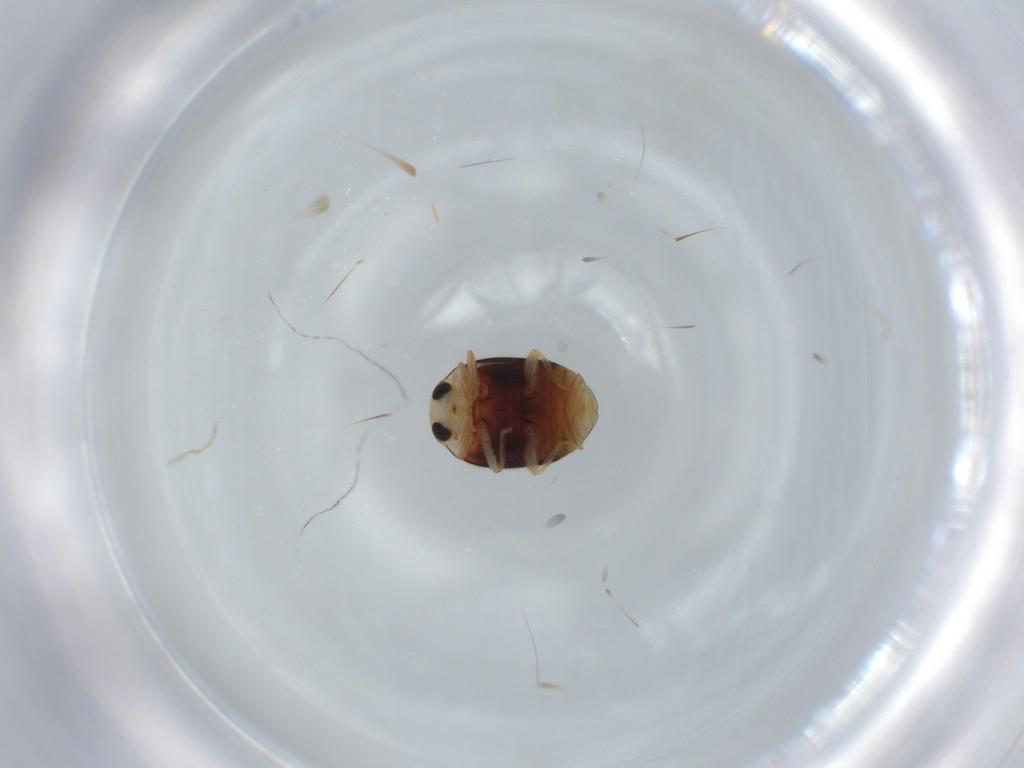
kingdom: Animalia
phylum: Arthropoda
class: Insecta
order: Coleoptera
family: Coccinellidae
